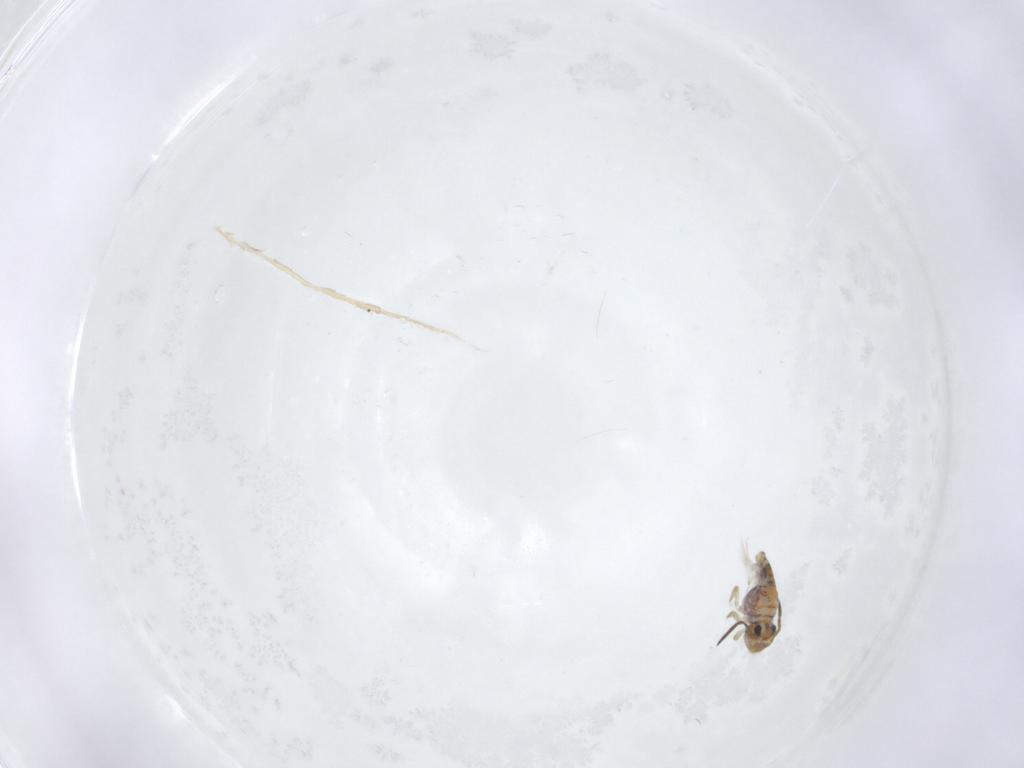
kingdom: Animalia
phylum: Arthropoda
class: Collembola
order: Symphypleona
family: Katiannidae
